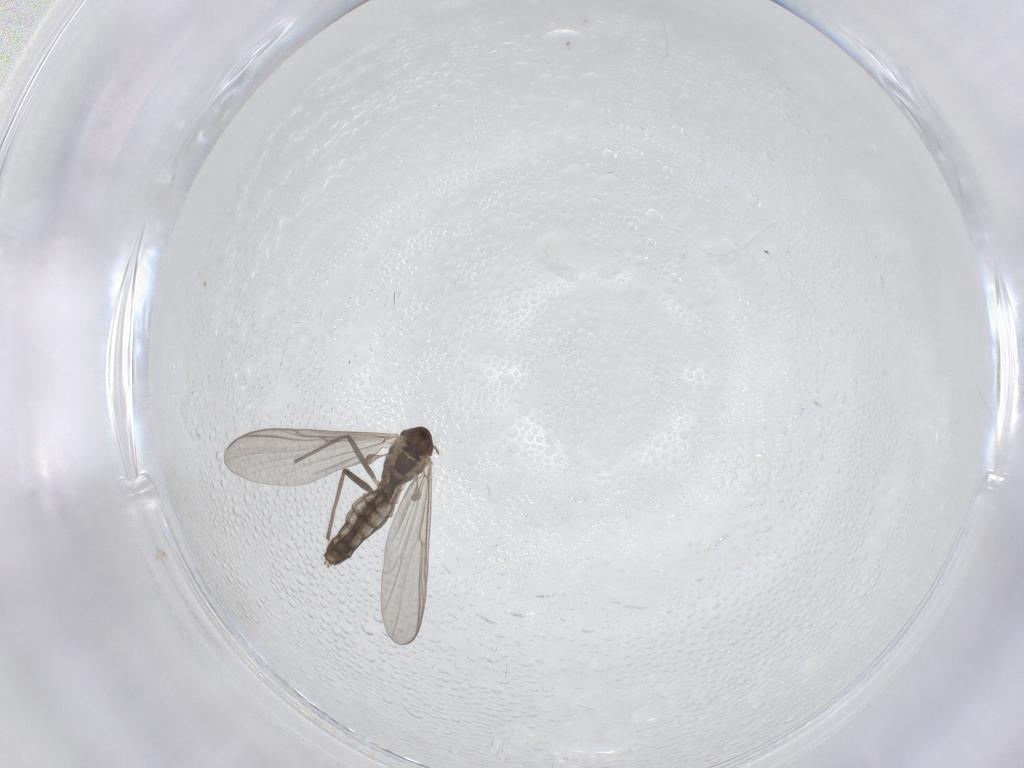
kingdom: Animalia
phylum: Arthropoda
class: Insecta
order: Diptera
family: Chironomidae
